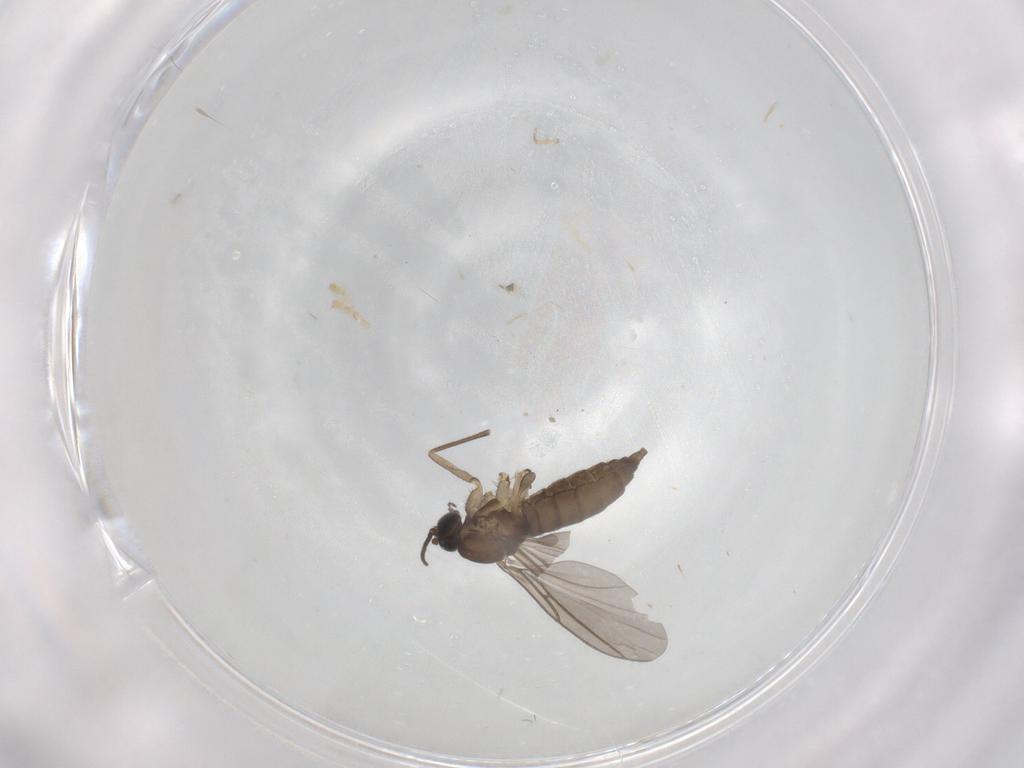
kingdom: Animalia
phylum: Arthropoda
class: Insecta
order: Diptera
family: Sciaridae
